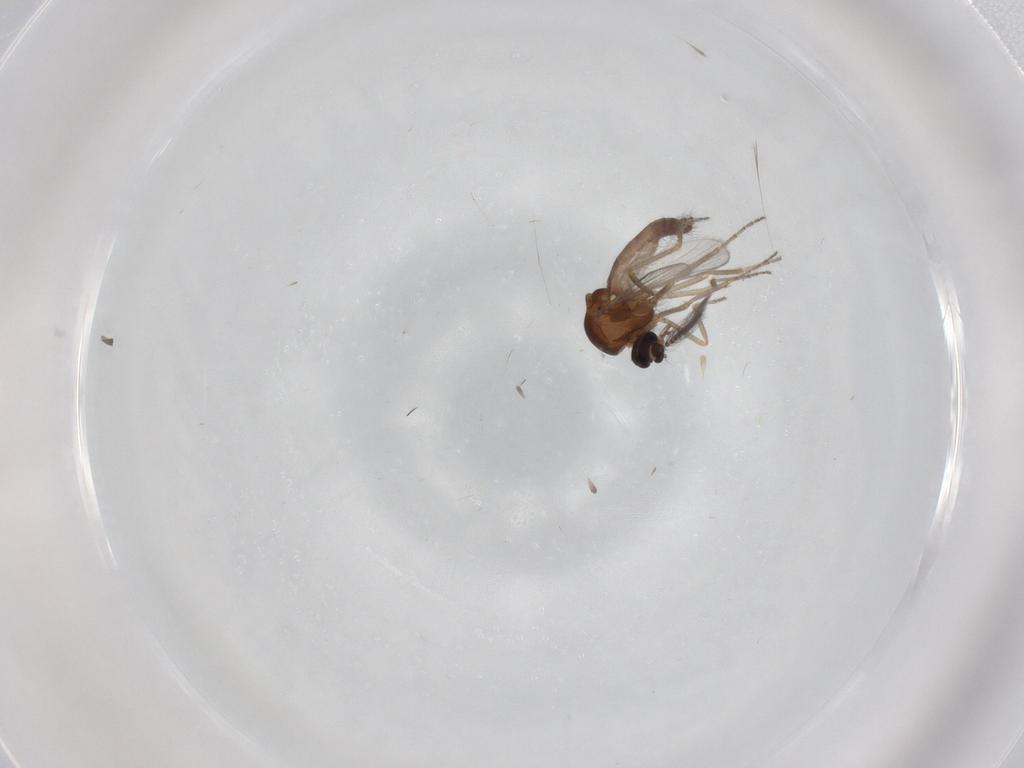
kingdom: Animalia
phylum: Arthropoda
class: Insecta
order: Diptera
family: Ceratopogonidae
